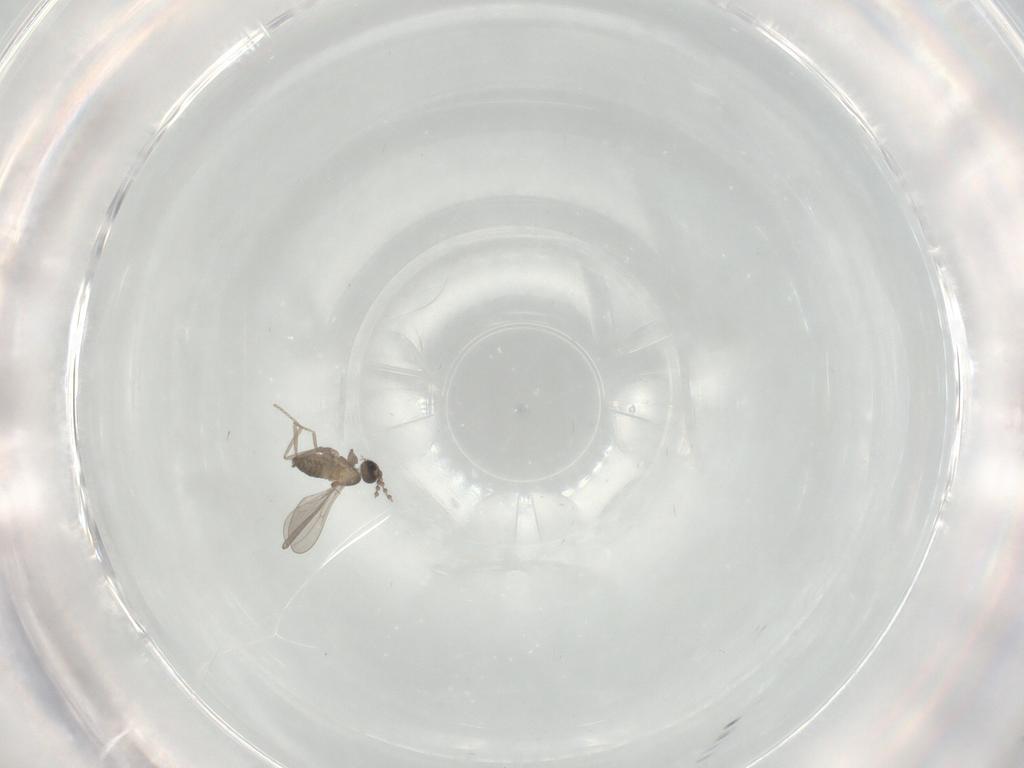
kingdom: Animalia
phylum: Arthropoda
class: Insecta
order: Diptera
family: Cecidomyiidae
